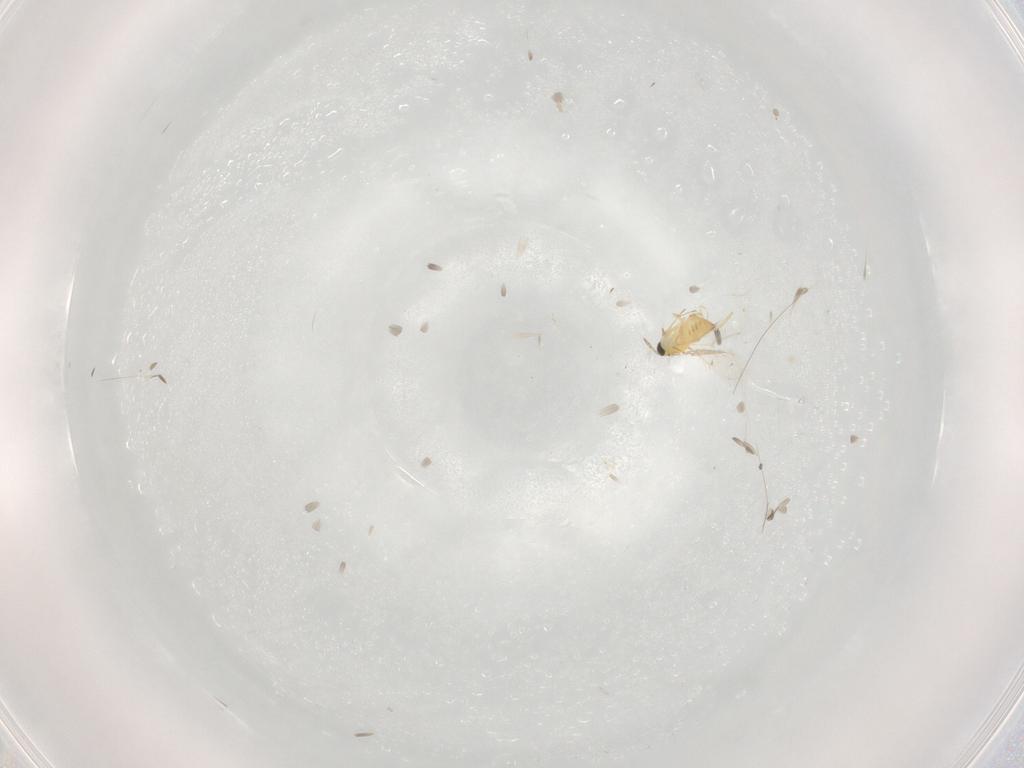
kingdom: Animalia
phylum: Arthropoda
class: Insecta
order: Hymenoptera
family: Trichogrammatidae
